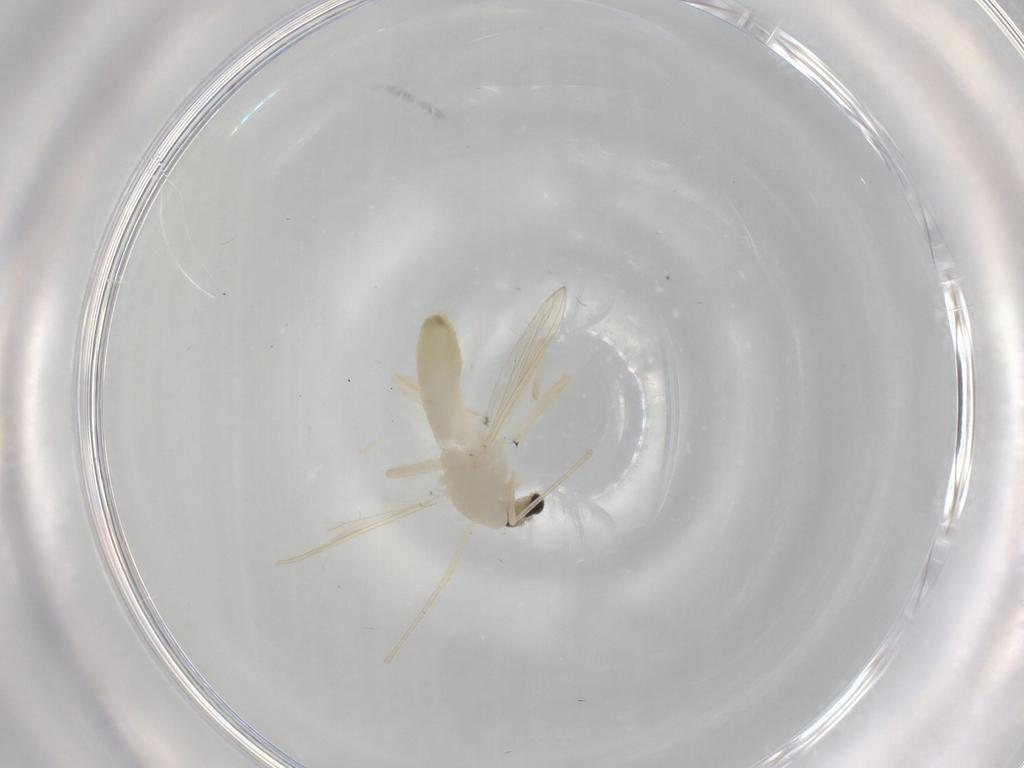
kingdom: Animalia
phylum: Arthropoda
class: Insecta
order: Diptera
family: Chironomidae
